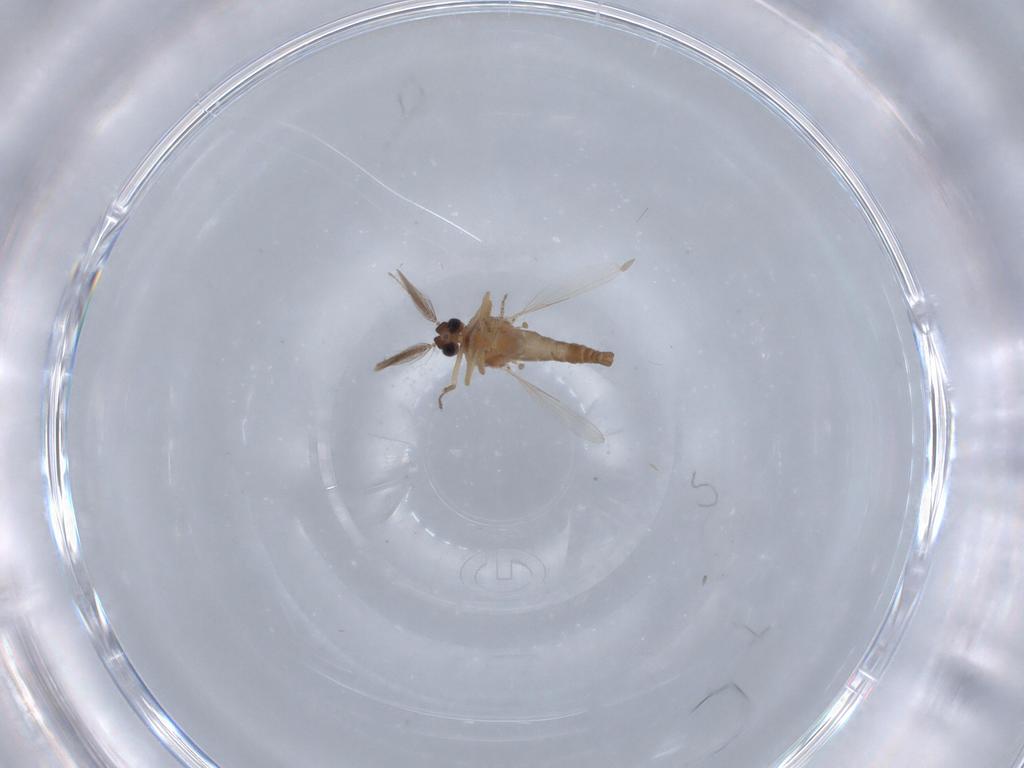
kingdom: Animalia
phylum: Arthropoda
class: Insecta
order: Diptera
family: Ceratopogonidae
